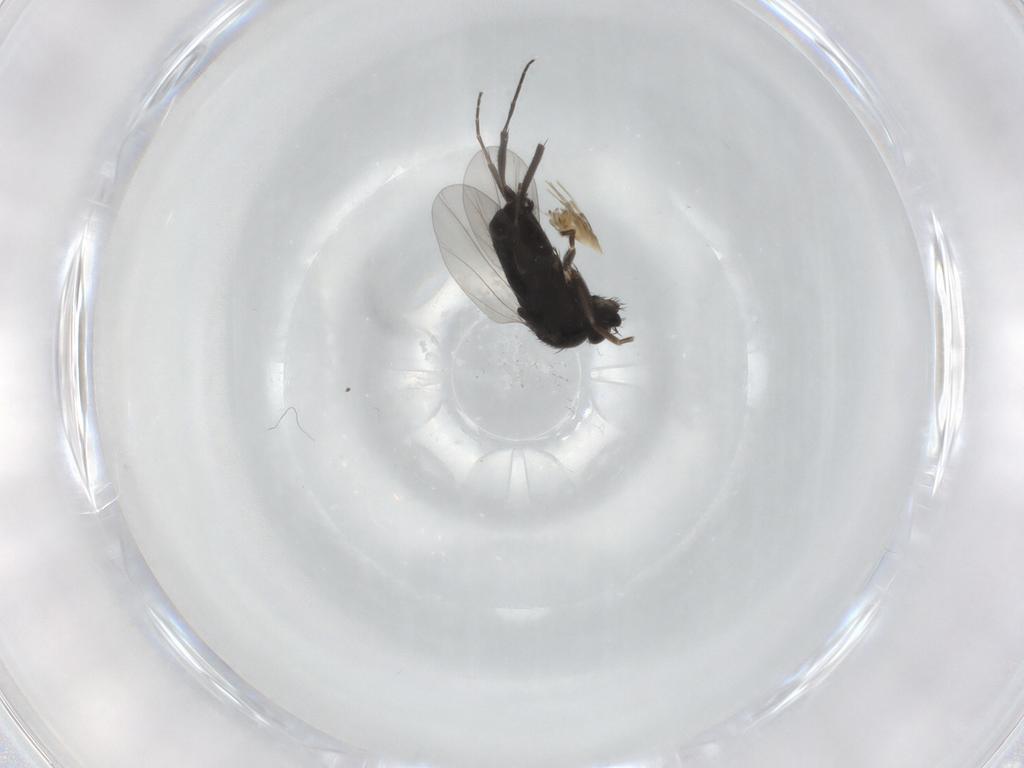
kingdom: Animalia
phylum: Arthropoda
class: Insecta
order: Diptera
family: Phoridae
